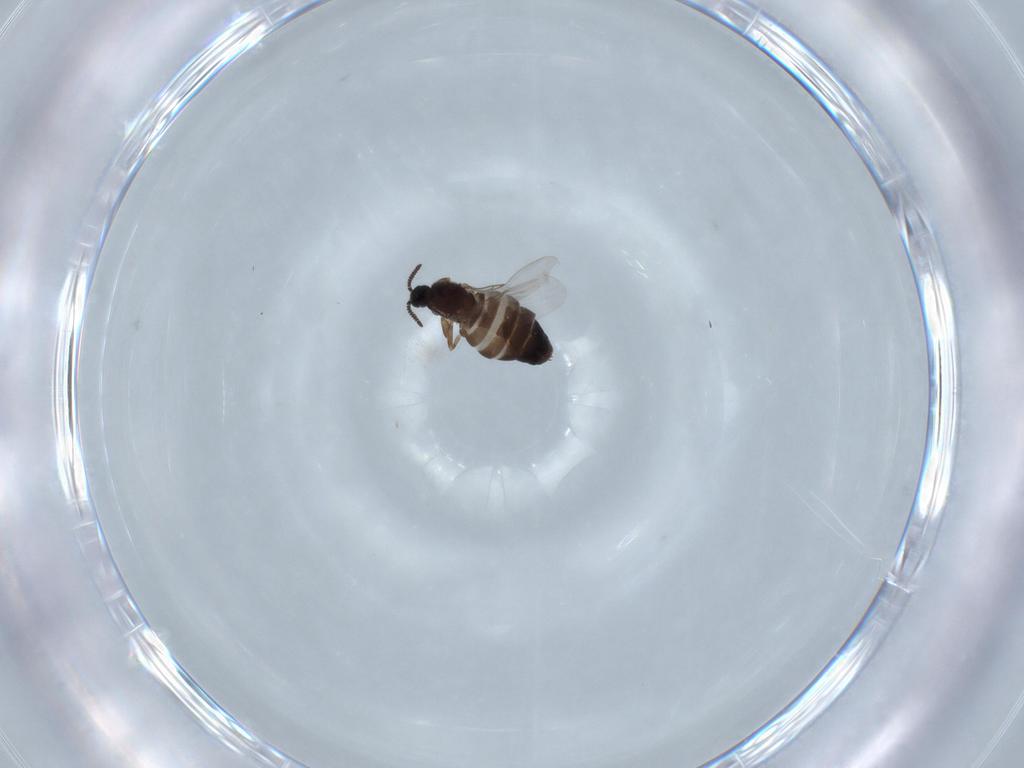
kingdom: Animalia
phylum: Arthropoda
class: Insecta
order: Diptera
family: Scatopsidae
